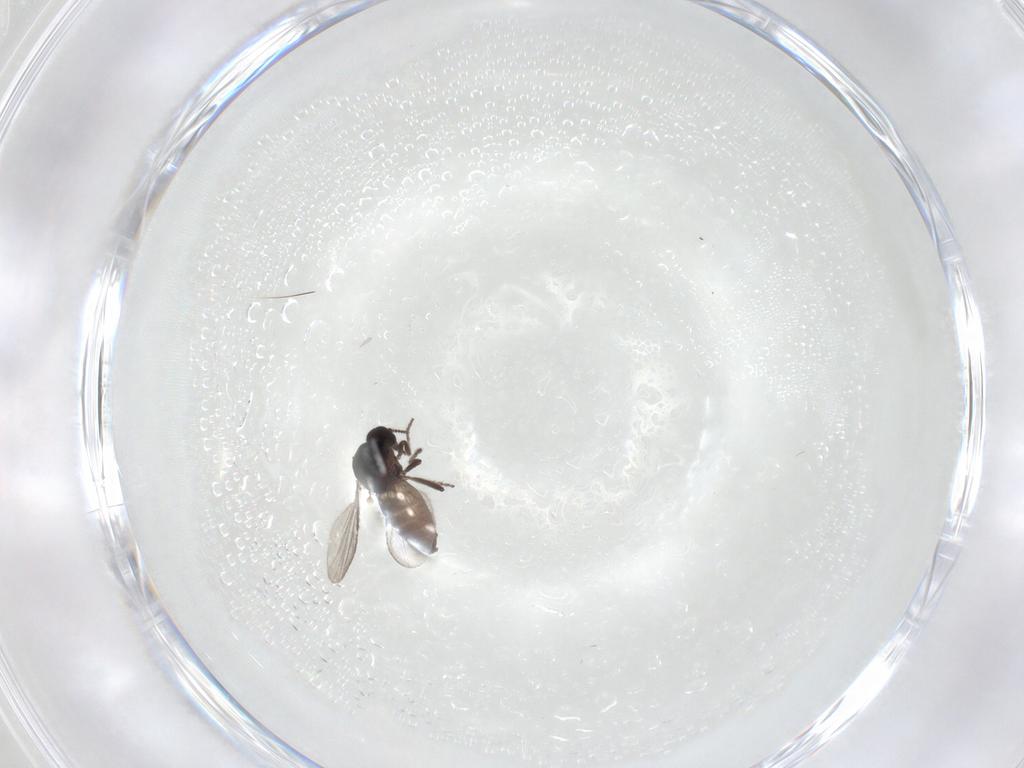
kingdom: Animalia
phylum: Arthropoda
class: Insecta
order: Diptera
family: Ceratopogonidae
